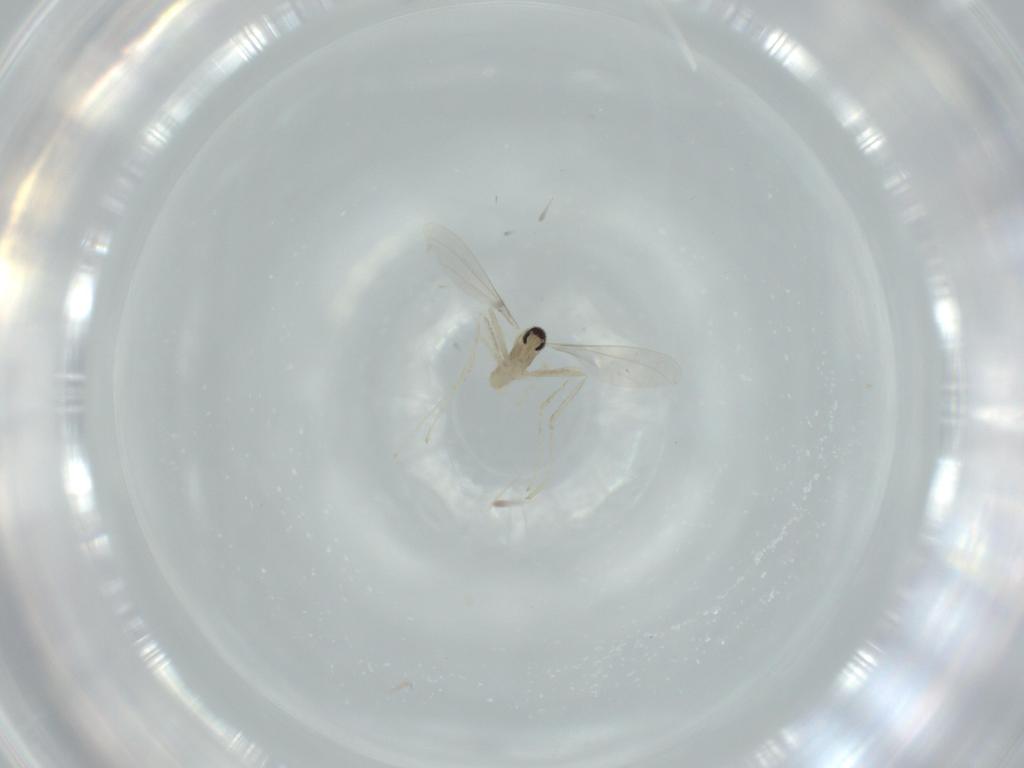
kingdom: Animalia
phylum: Arthropoda
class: Insecta
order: Diptera
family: Cecidomyiidae
